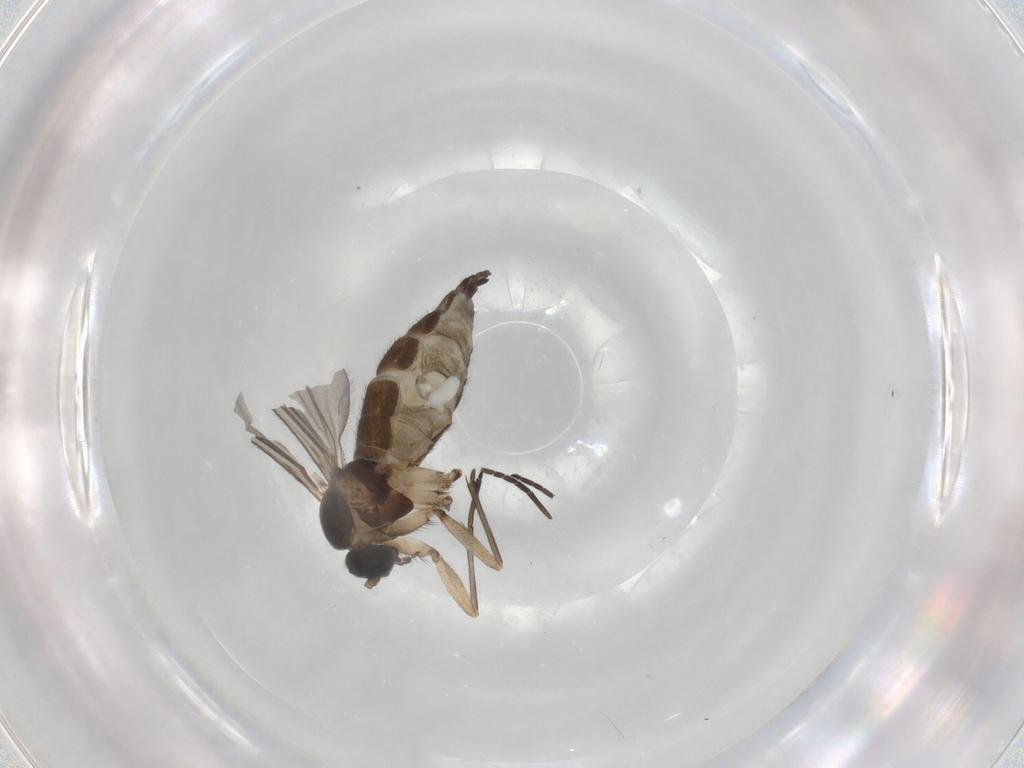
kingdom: Animalia
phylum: Arthropoda
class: Insecta
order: Diptera
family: Sciaridae
